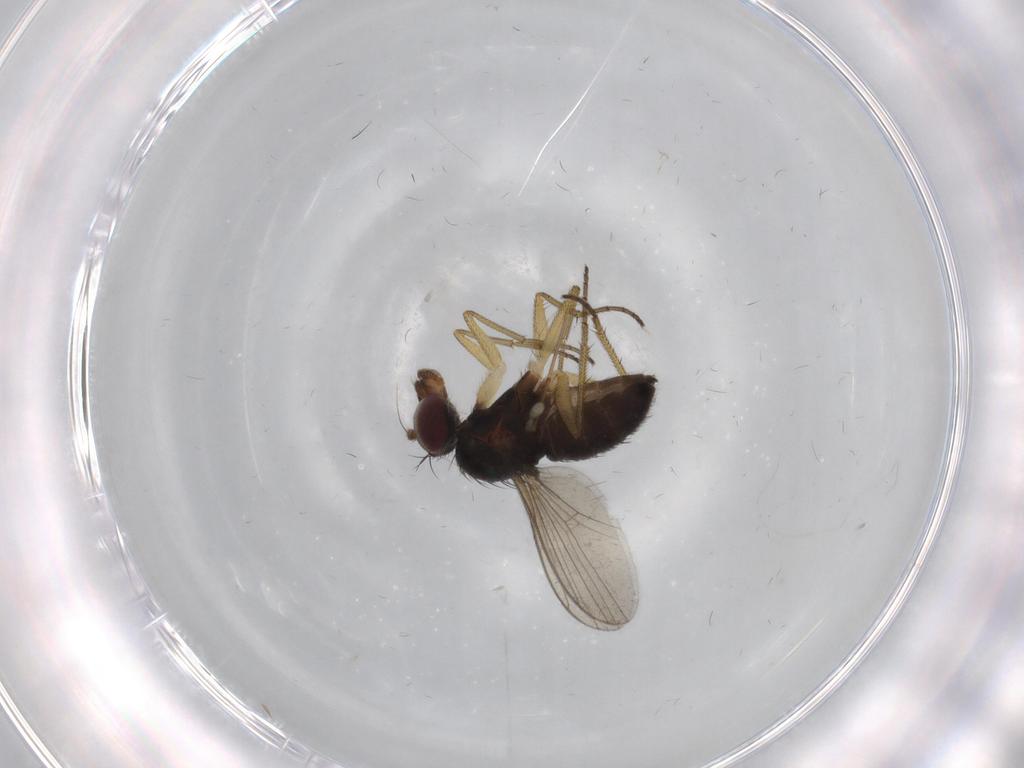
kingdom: Animalia
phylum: Arthropoda
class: Insecta
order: Diptera
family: Dolichopodidae
